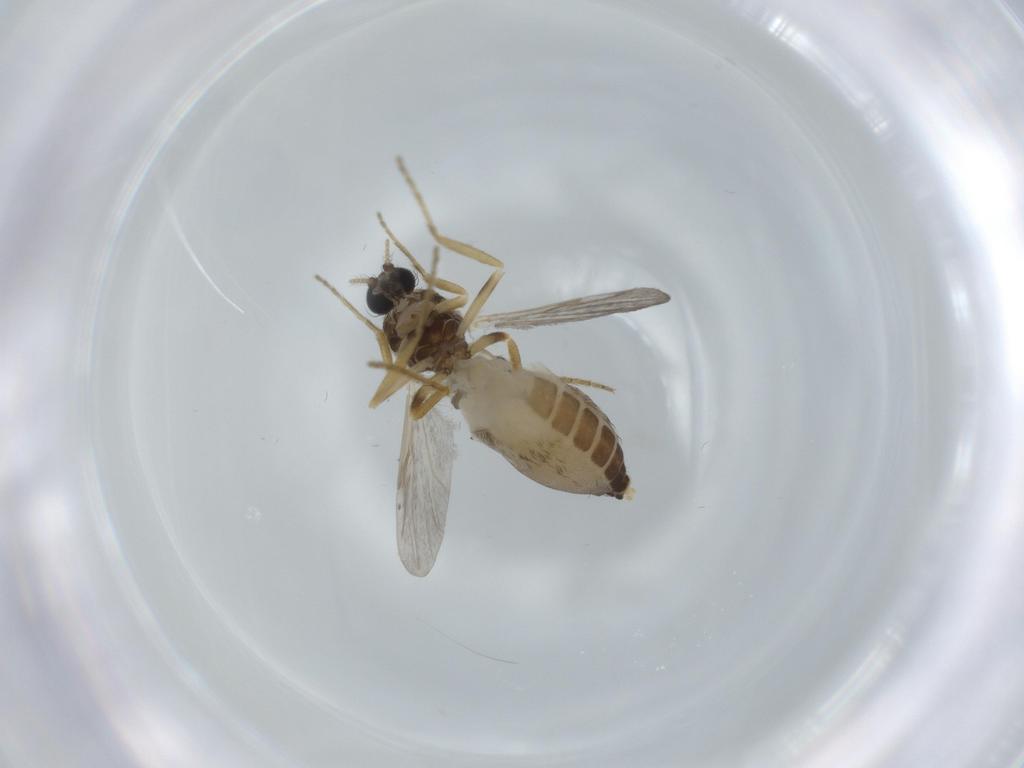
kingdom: Animalia
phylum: Arthropoda
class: Insecta
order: Diptera
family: Ceratopogonidae
